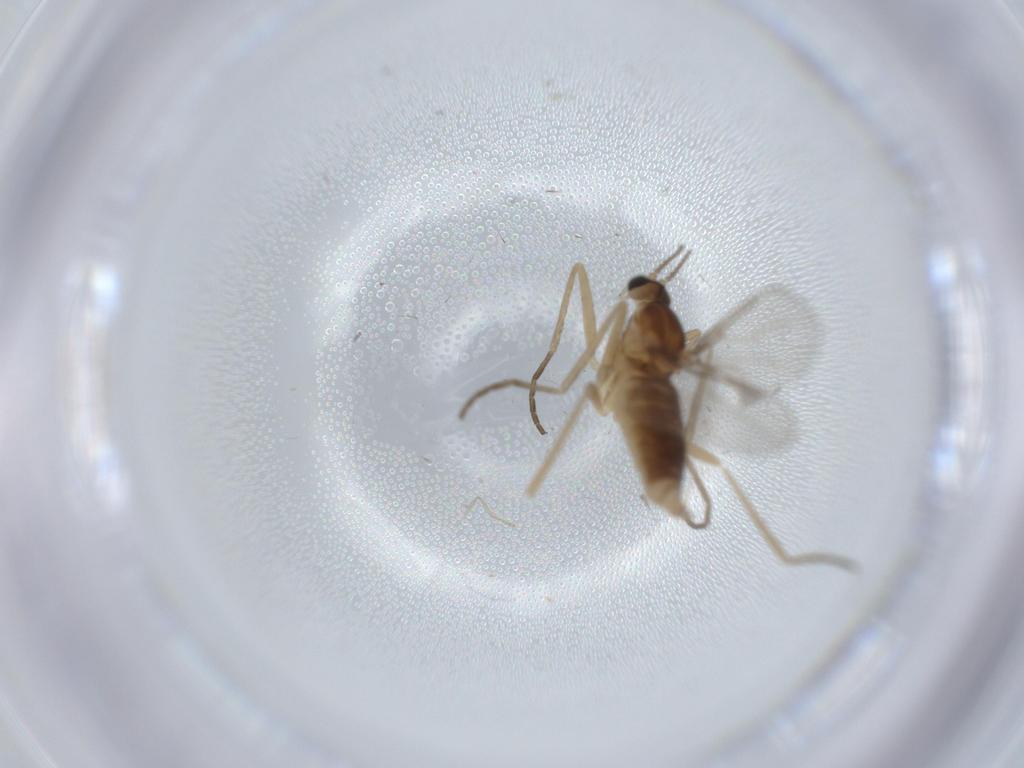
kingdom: Animalia
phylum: Arthropoda
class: Insecta
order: Diptera
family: Cecidomyiidae
